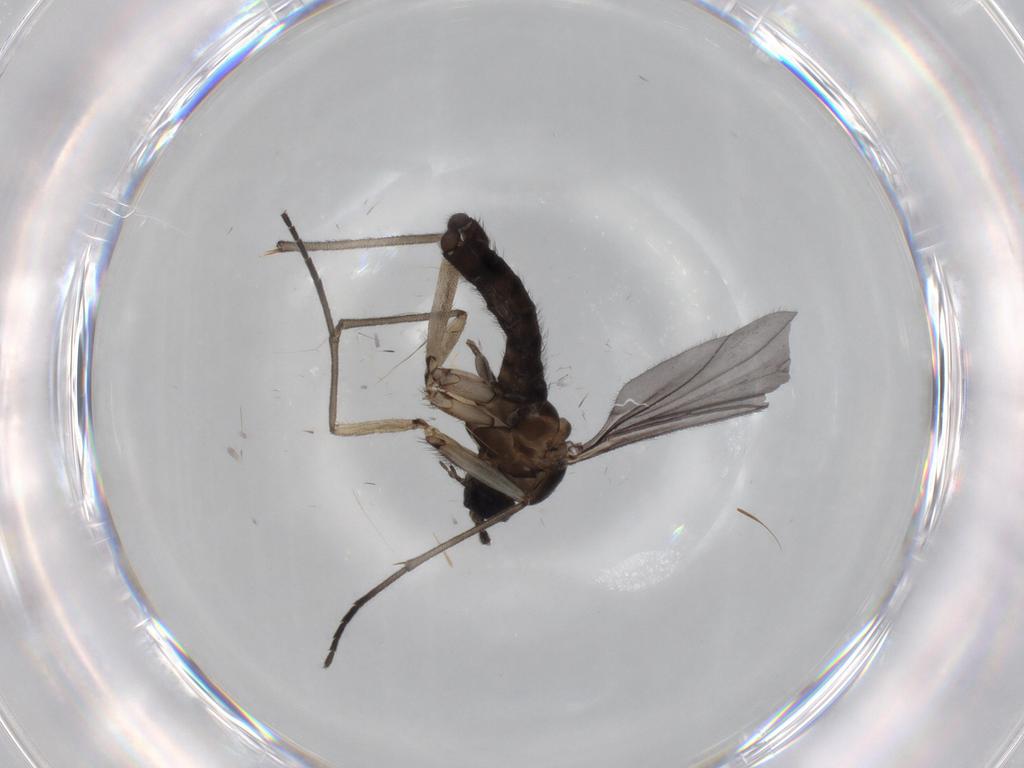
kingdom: Animalia
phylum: Arthropoda
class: Insecta
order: Diptera
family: Sciaridae
